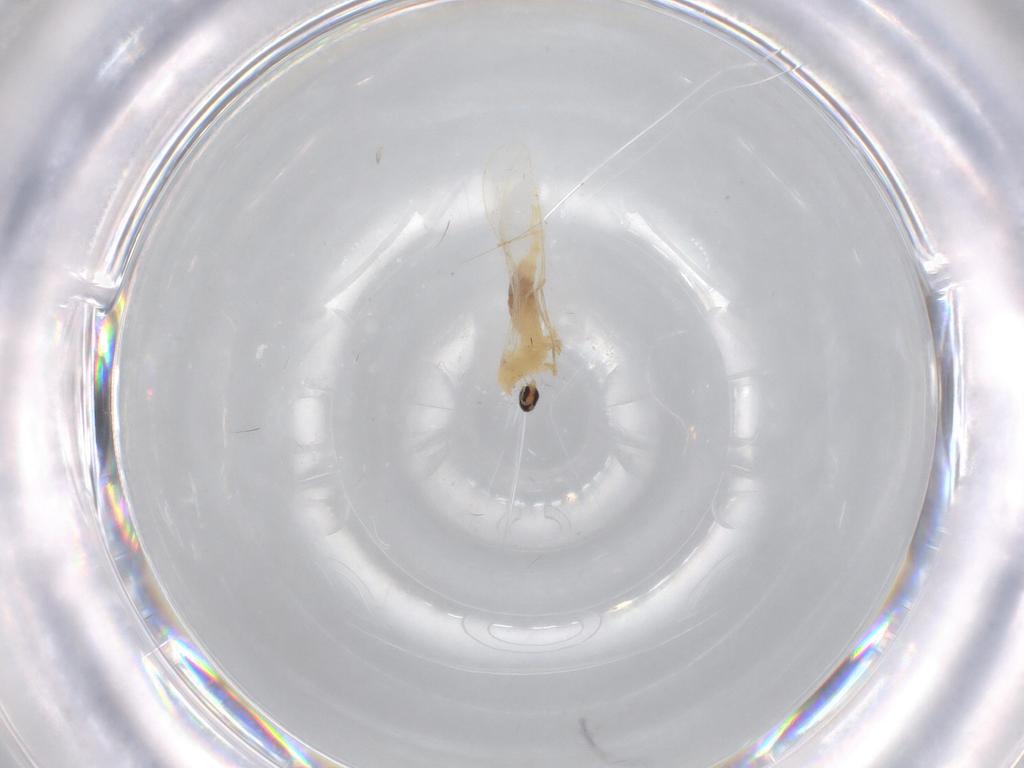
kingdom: Animalia
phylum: Arthropoda
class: Insecta
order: Diptera
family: Cecidomyiidae
